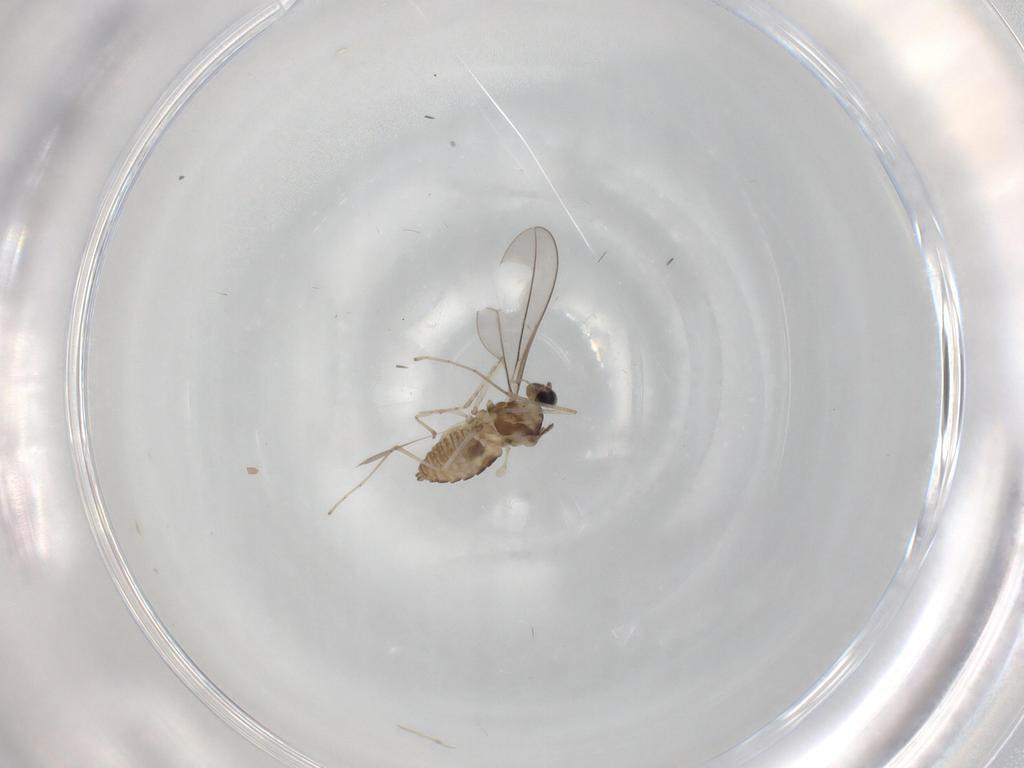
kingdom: Animalia
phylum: Arthropoda
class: Insecta
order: Diptera
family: Cecidomyiidae
